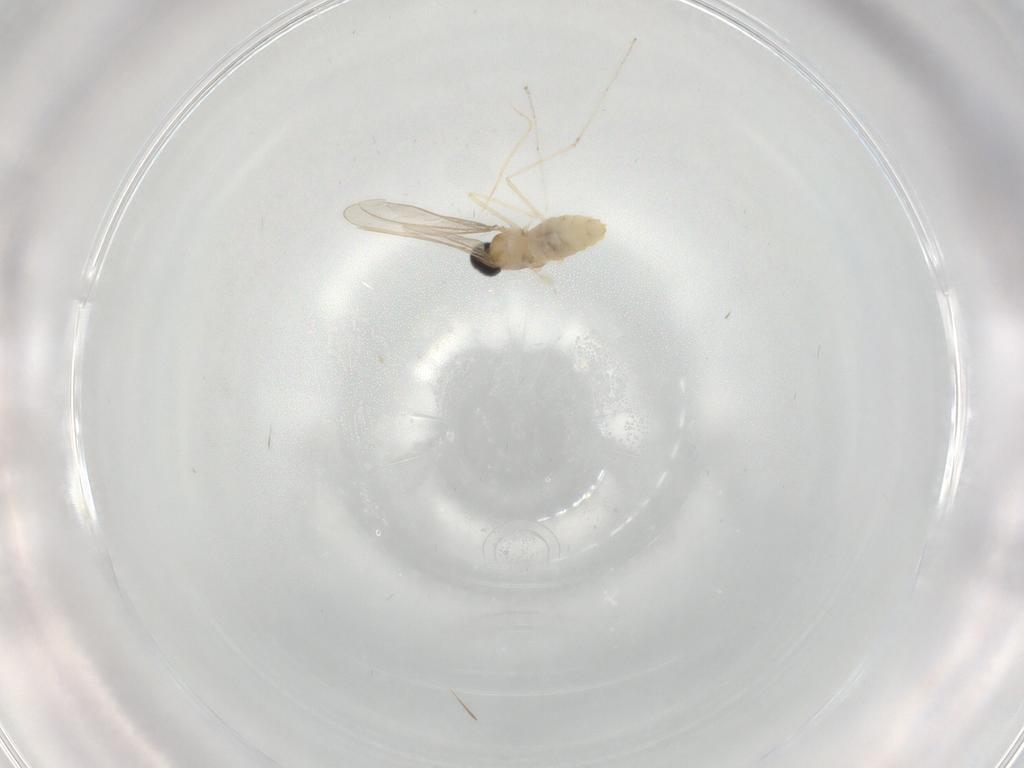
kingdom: Animalia
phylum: Arthropoda
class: Insecta
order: Diptera
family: Cecidomyiidae
